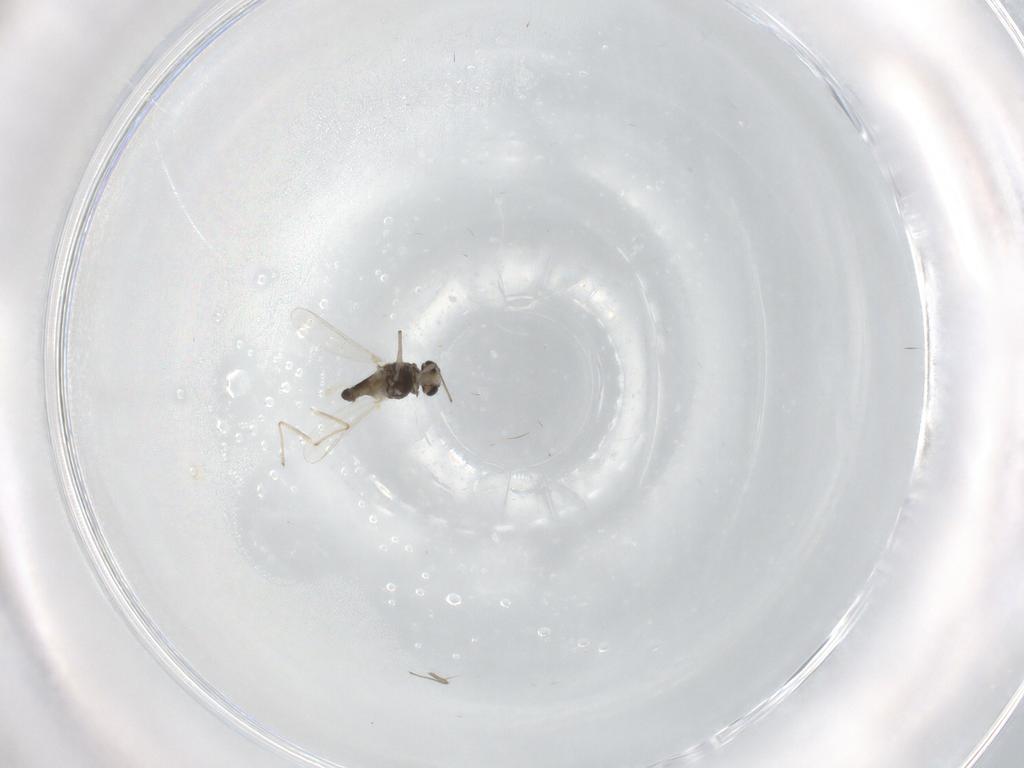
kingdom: Animalia
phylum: Arthropoda
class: Insecta
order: Diptera
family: Chironomidae
